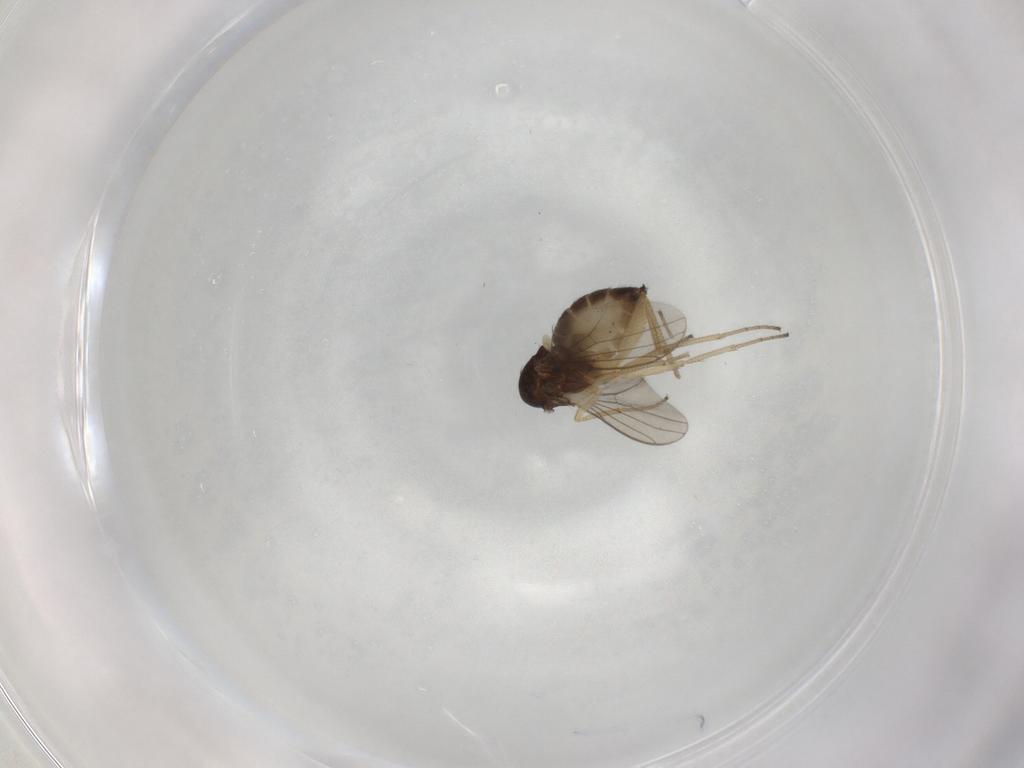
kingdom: Animalia
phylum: Arthropoda
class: Insecta
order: Diptera
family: Dolichopodidae
